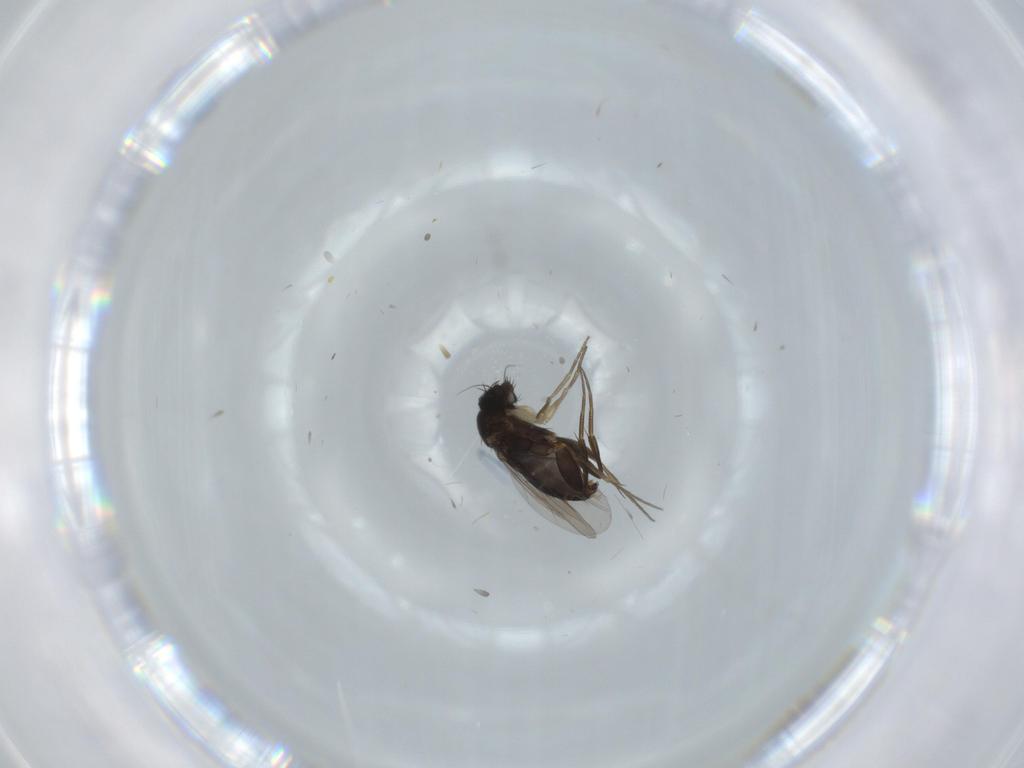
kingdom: Animalia
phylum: Arthropoda
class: Insecta
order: Diptera
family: Phoridae
